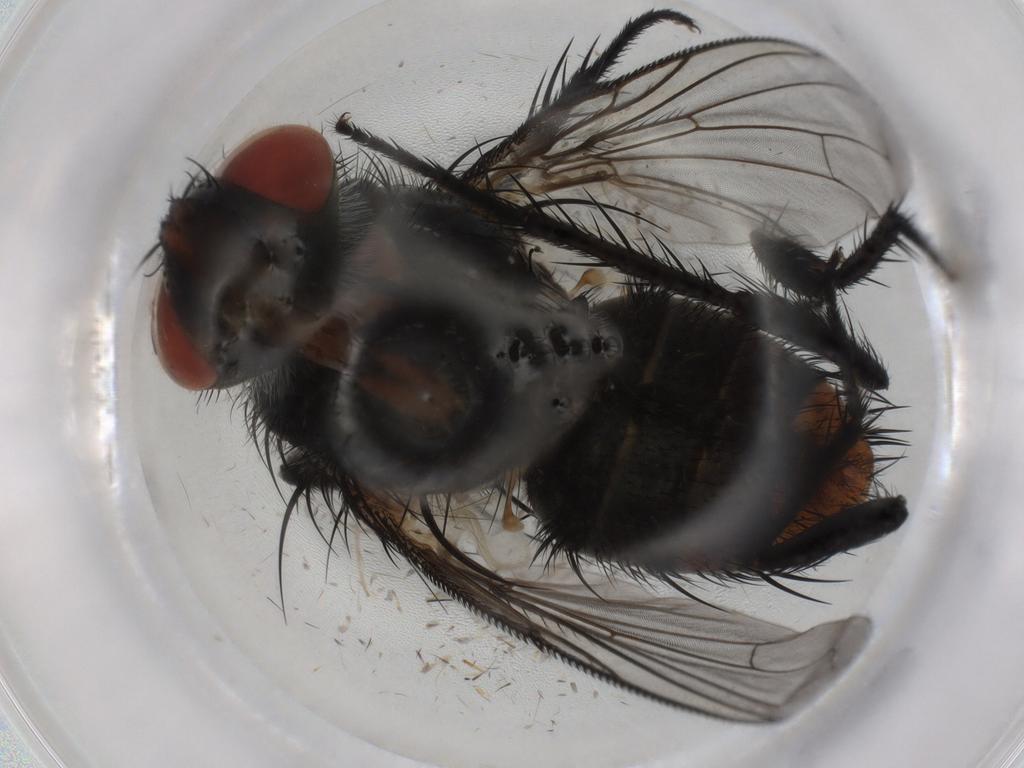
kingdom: Animalia
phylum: Arthropoda
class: Insecta
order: Diptera
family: Tachinidae
